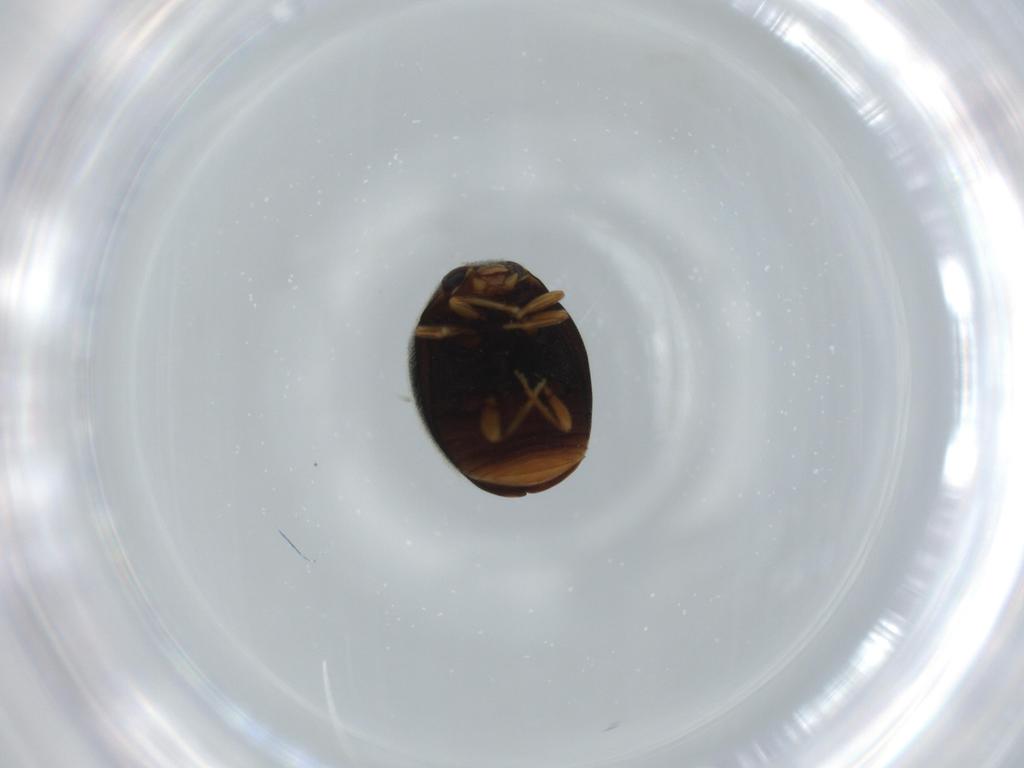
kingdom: Animalia
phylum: Arthropoda
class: Insecta
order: Coleoptera
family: Coccinellidae
